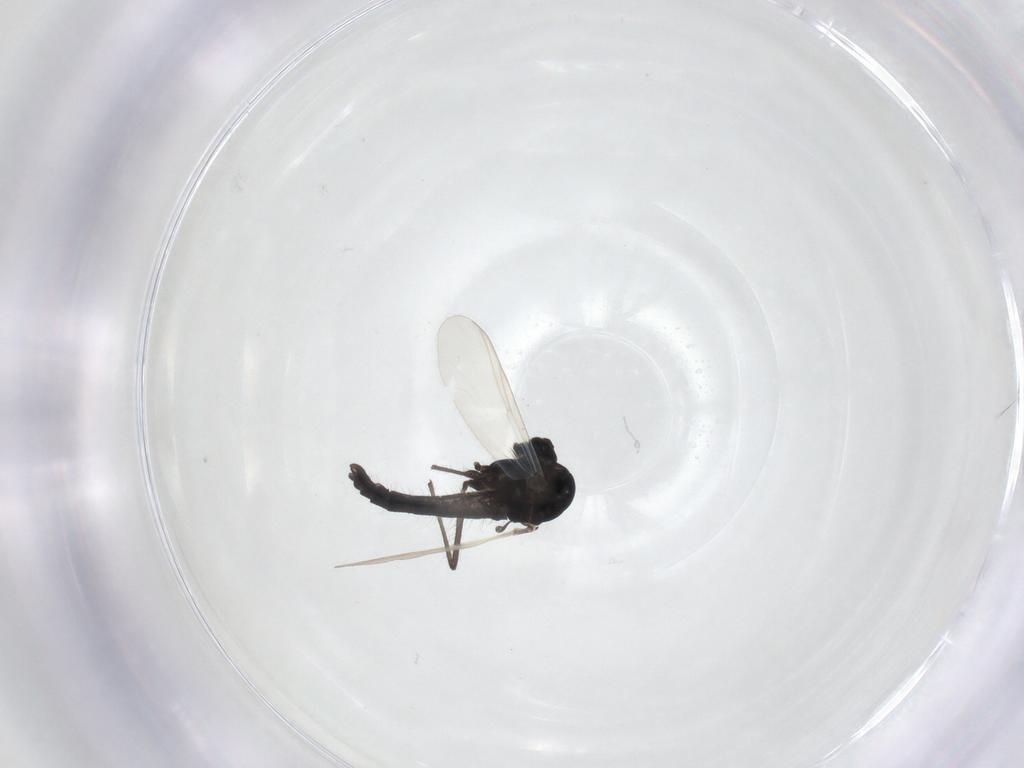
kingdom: Animalia
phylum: Arthropoda
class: Insecta
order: Diptera
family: Chironomidae
